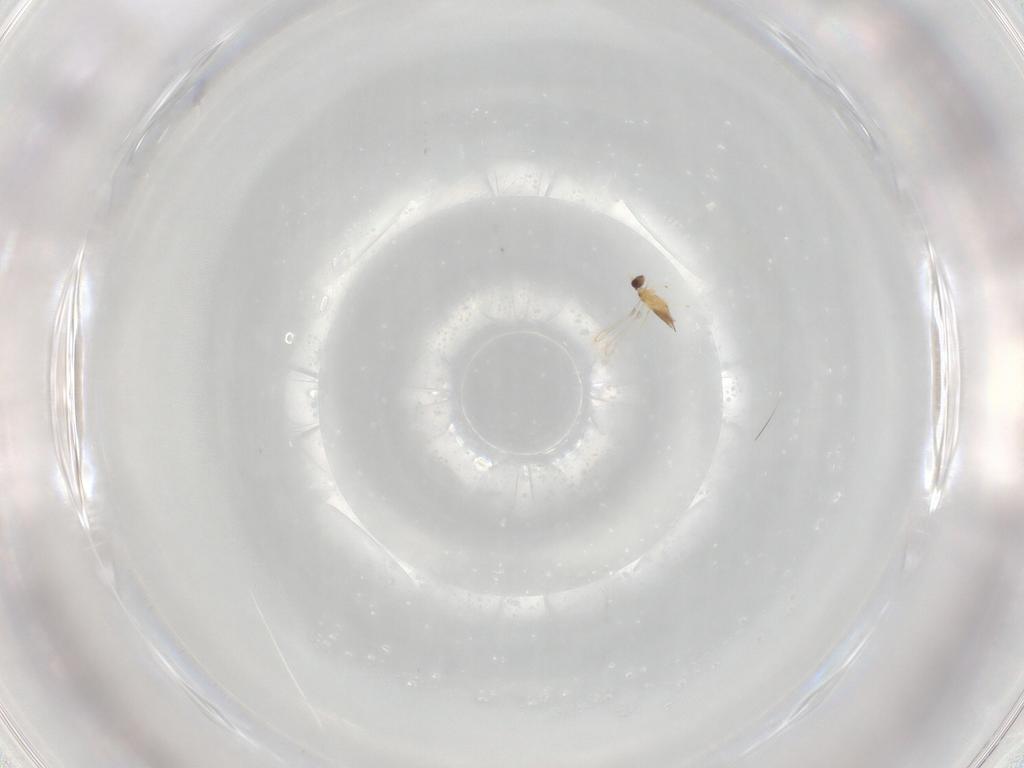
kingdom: Animalia
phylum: Arthropoda
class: Insecta
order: Hymenoptera
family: Mymaridae
